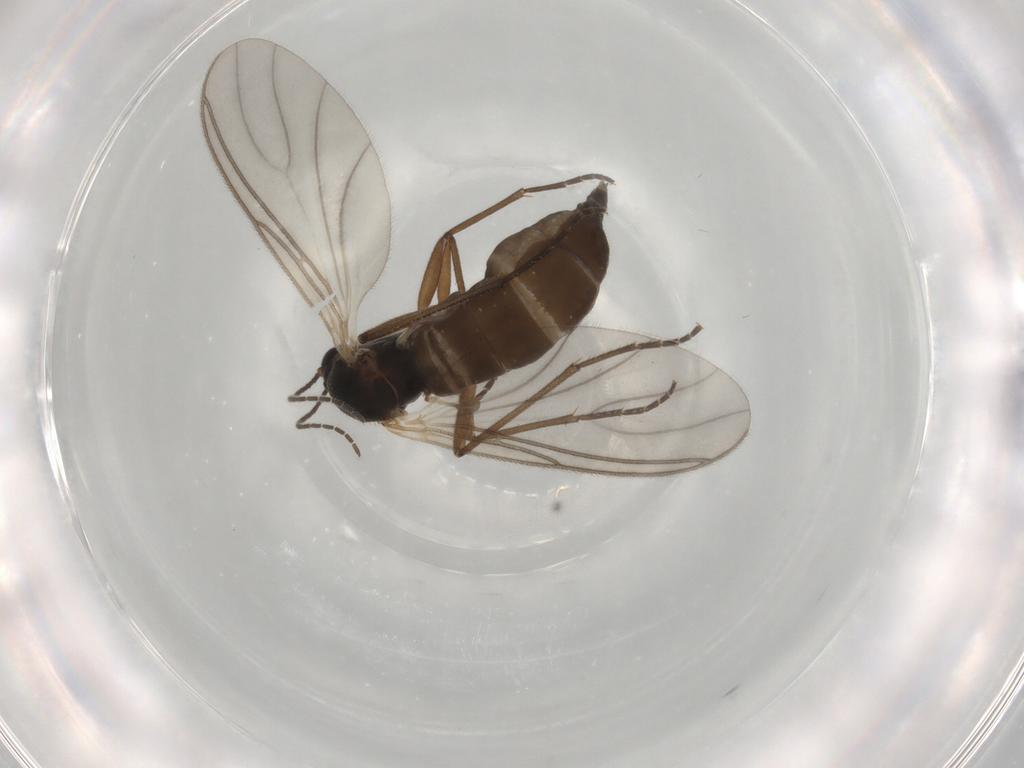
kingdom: Animalia
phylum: Arthropoda
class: Insecta
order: Diptera
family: Sciaridae
